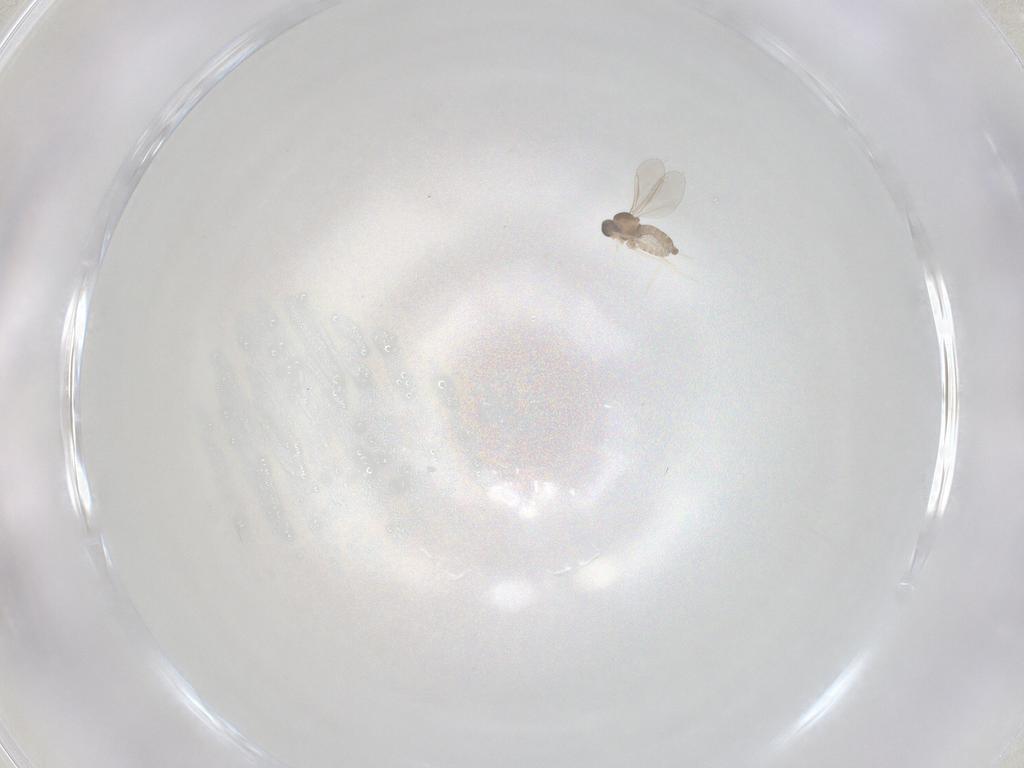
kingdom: Animalia
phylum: Arthropoda
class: Insecta
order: Diptera
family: Cecidomyiidae
